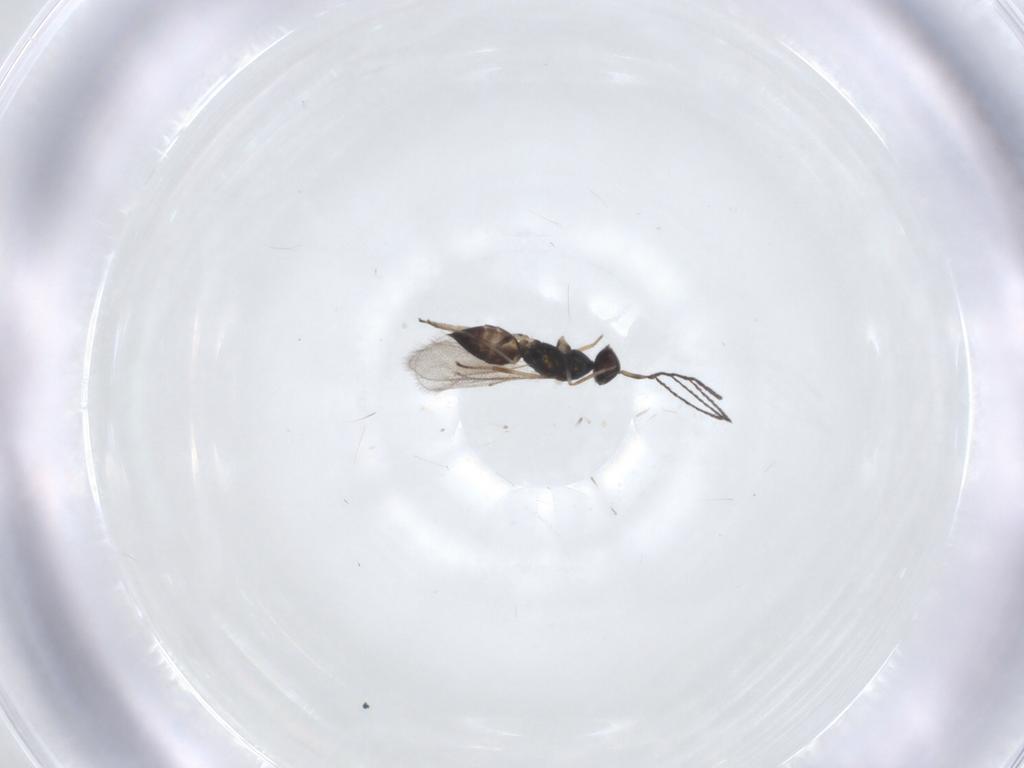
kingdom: Animalia
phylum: Arthropoda
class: Insecta
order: Hymenoptera
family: Eulophidae
